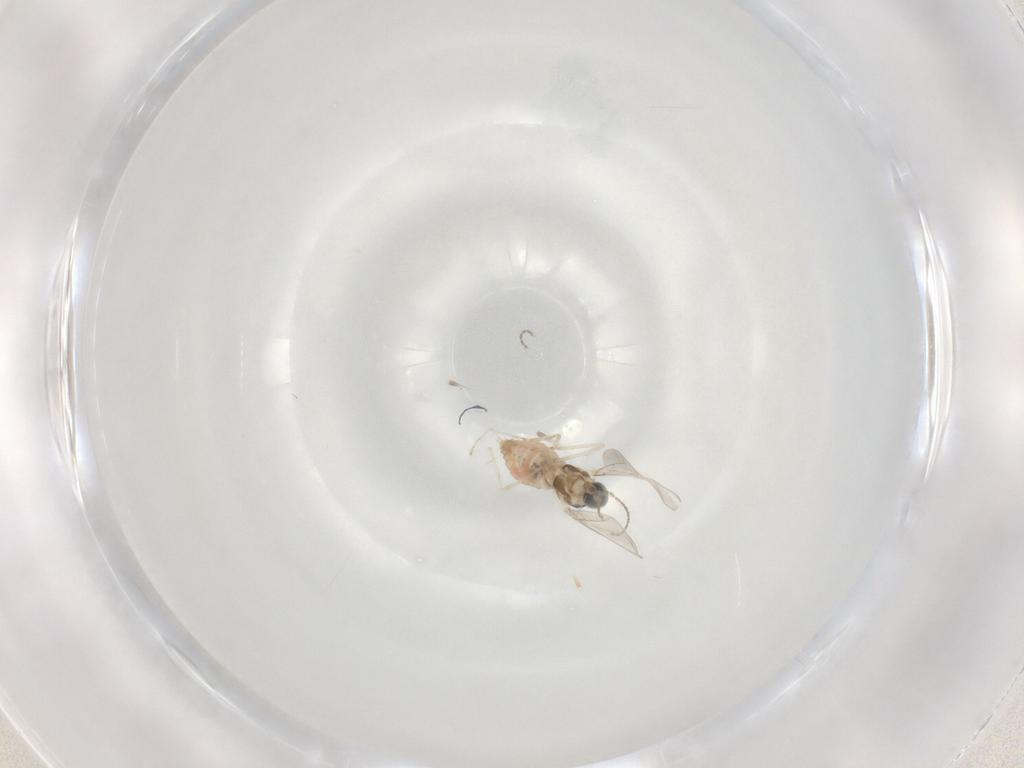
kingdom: Animalia
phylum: Arthropoda
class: Insecta
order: Diptera
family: Cecidomyiidae
